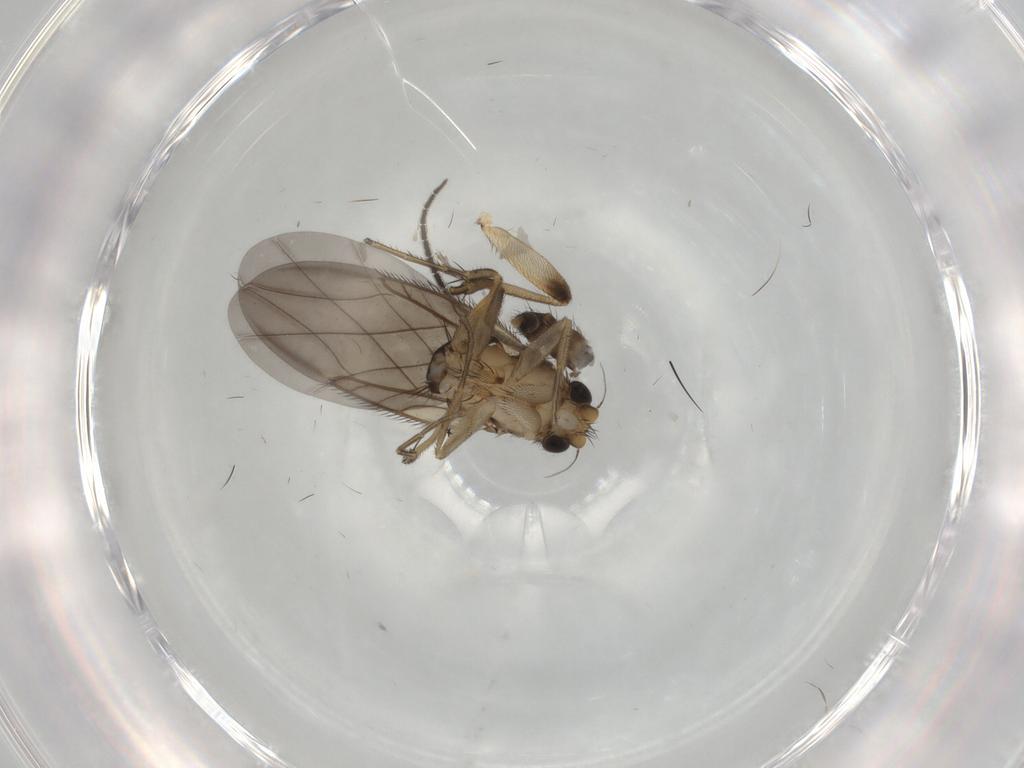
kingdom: Animalia
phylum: Arthropoda
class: Insecta
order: Diptera
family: Phoridae
